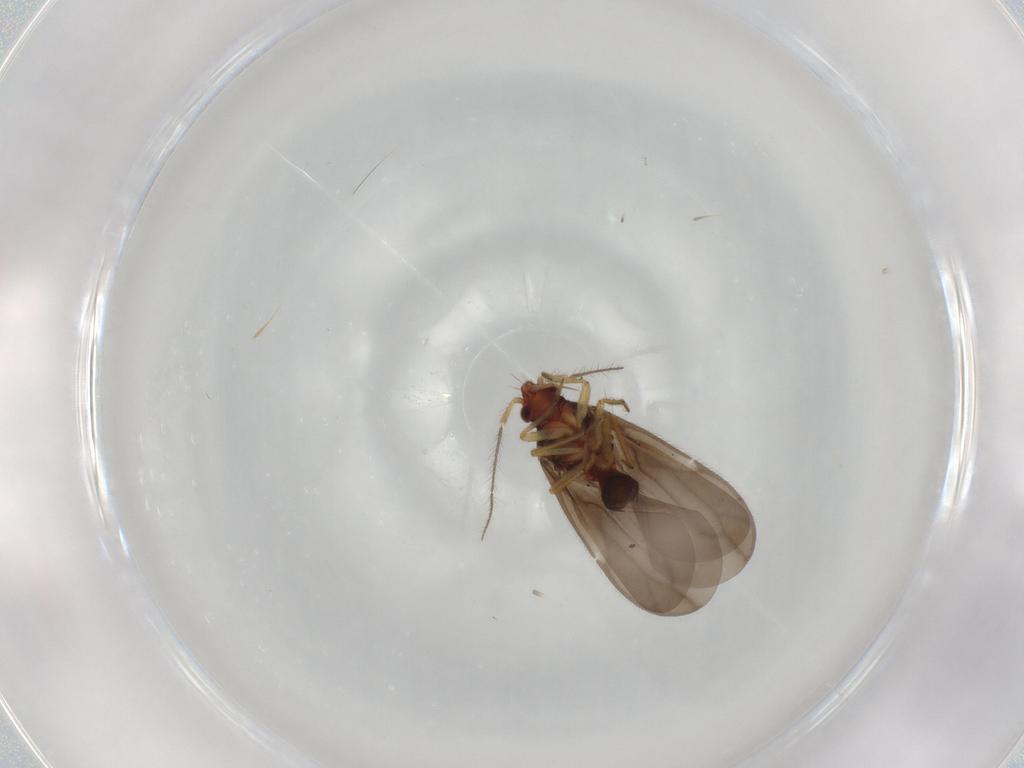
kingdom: Animalia
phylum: Arthropoda
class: Insecta
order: Hemiptera
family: Ceratocombidae
